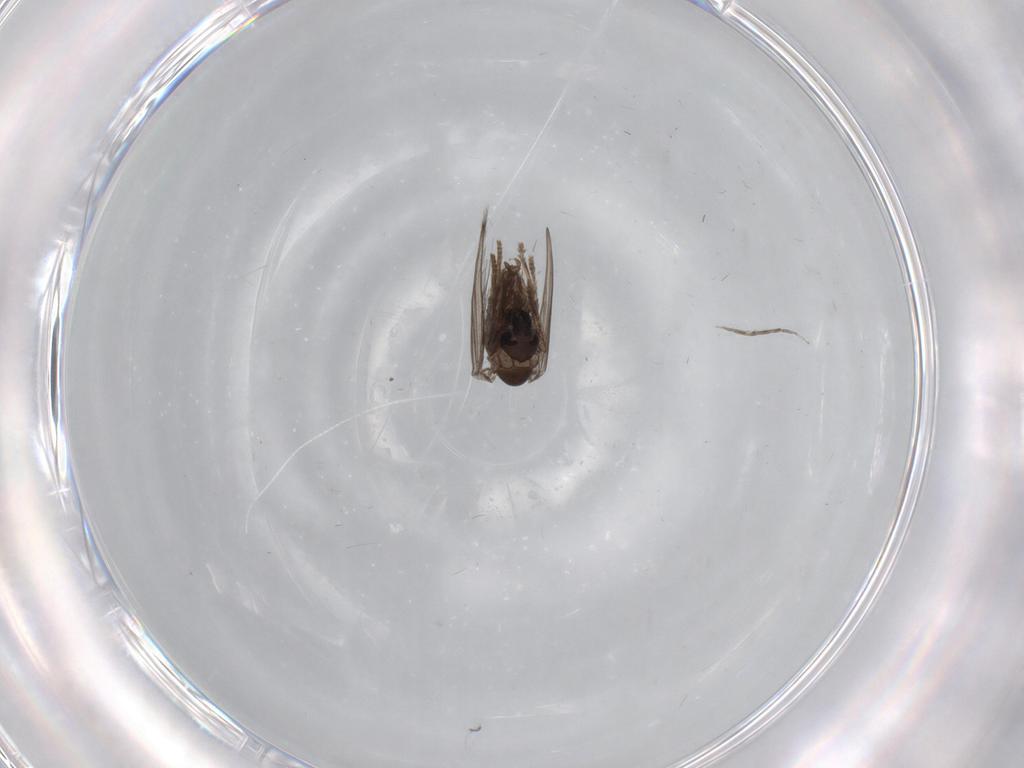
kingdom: Animalia
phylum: Arthropoda
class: Insecta
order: Diptera
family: Psychodidae
